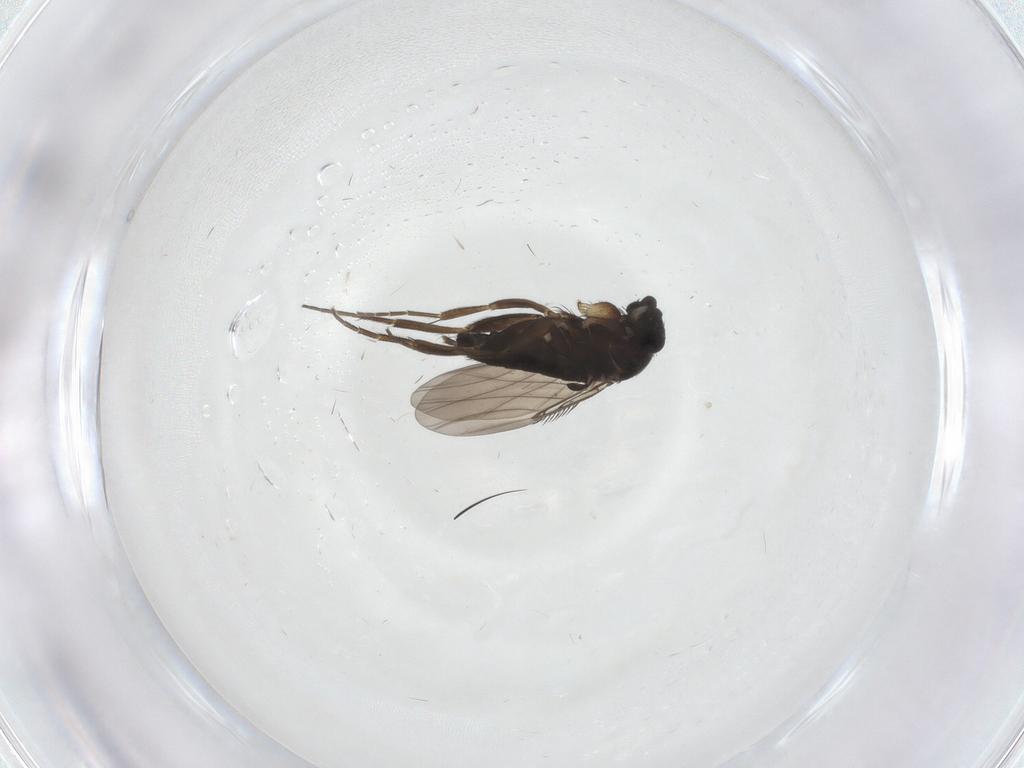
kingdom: Animalia
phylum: Arthropoda
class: Insecta
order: Diptera
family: Phoridae
